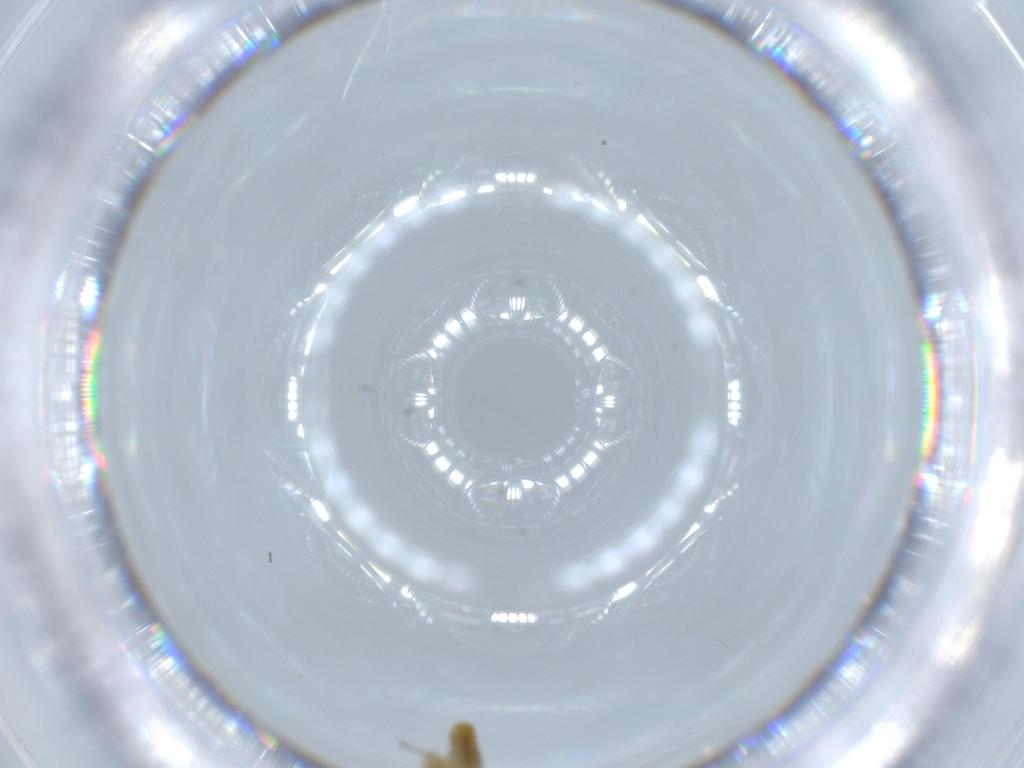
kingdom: Animalia
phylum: Arthropoda
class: Insecta
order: Diptera
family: Chironomidae
